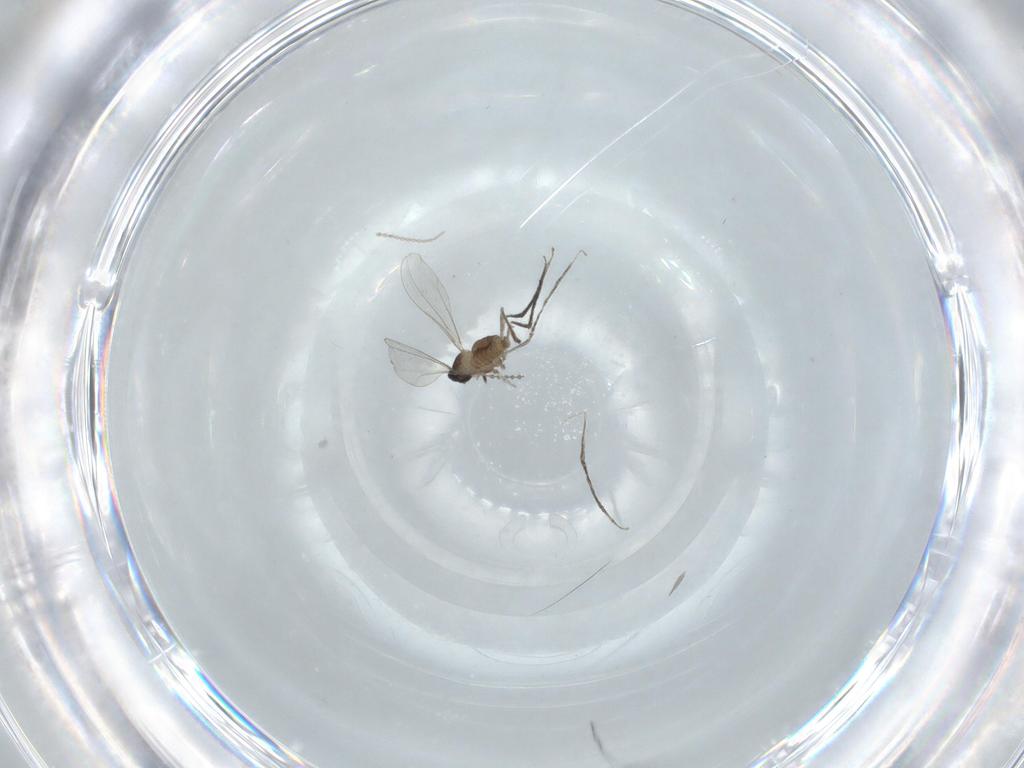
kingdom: Animalia
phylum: Arthropoda
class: Insecta
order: Diptera
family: Cecidomyiidae
